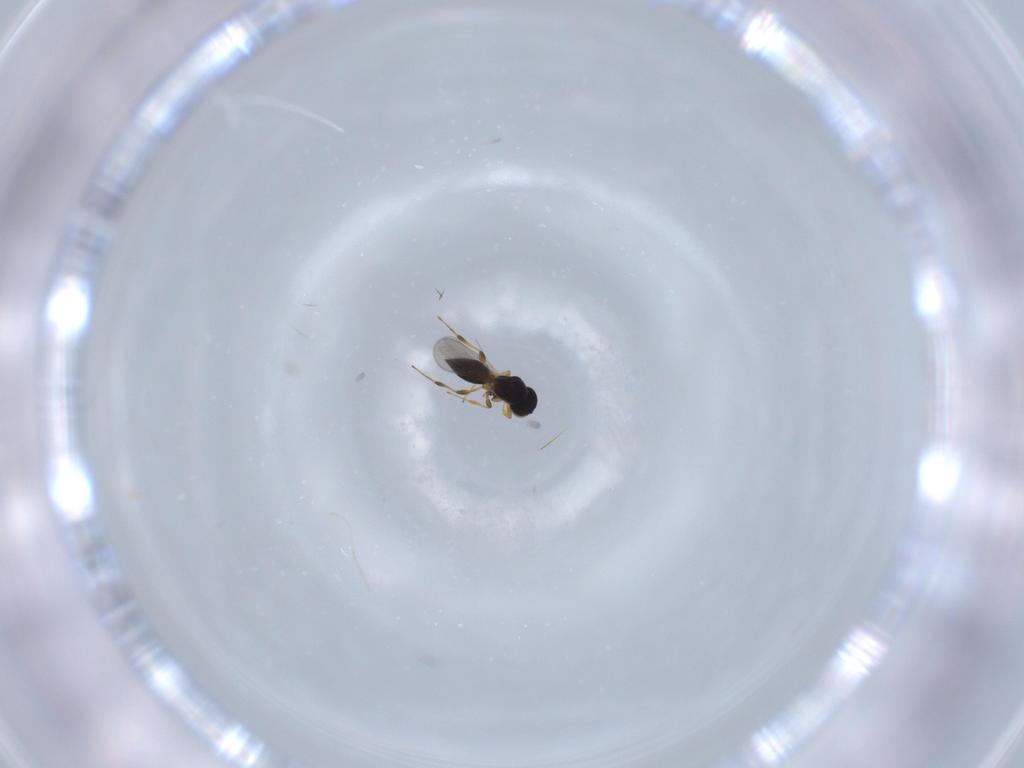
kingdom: Animalia
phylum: Arthropoda
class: Insecta
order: Hymenoptera
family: Platygastridae
